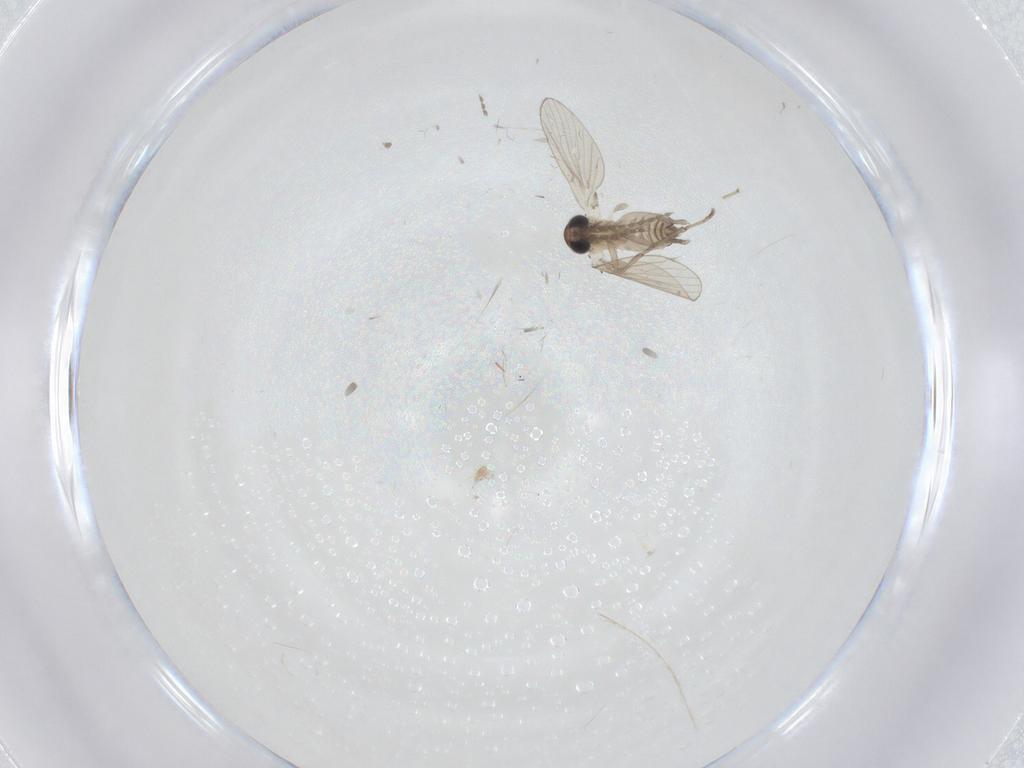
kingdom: Animalia
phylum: Arthropoda
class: Insecta
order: Diptera
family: Psychodidae
